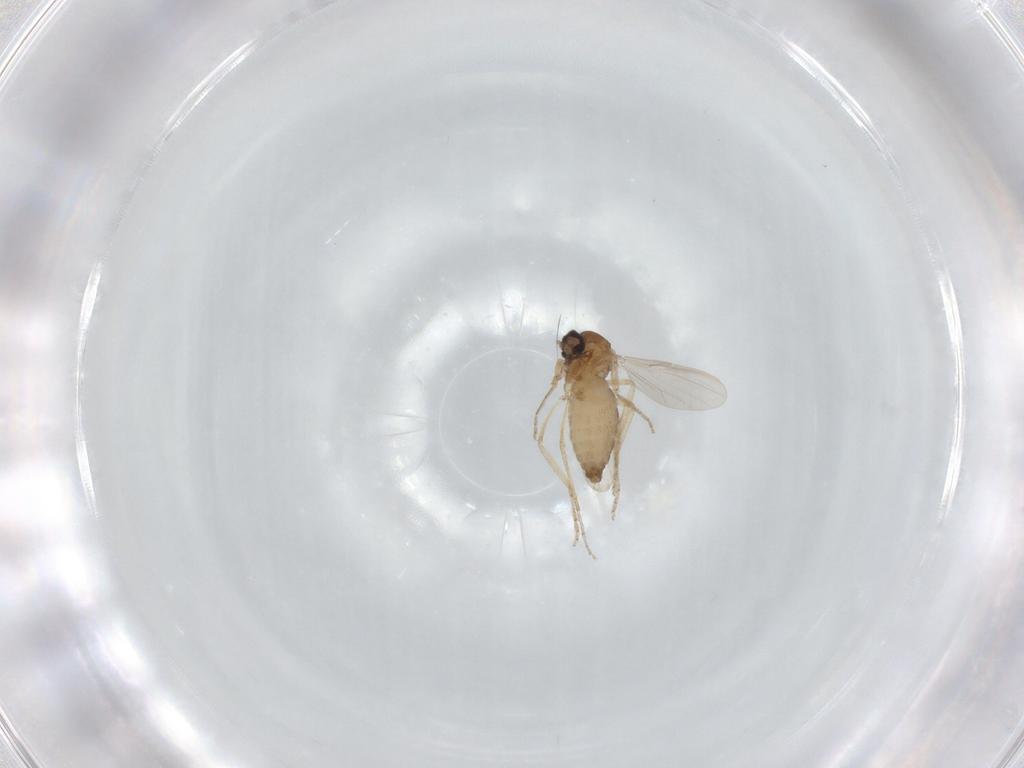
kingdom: Animalia
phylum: Arthropoda
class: Insecta
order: Diptera
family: Ceratopogonidae
